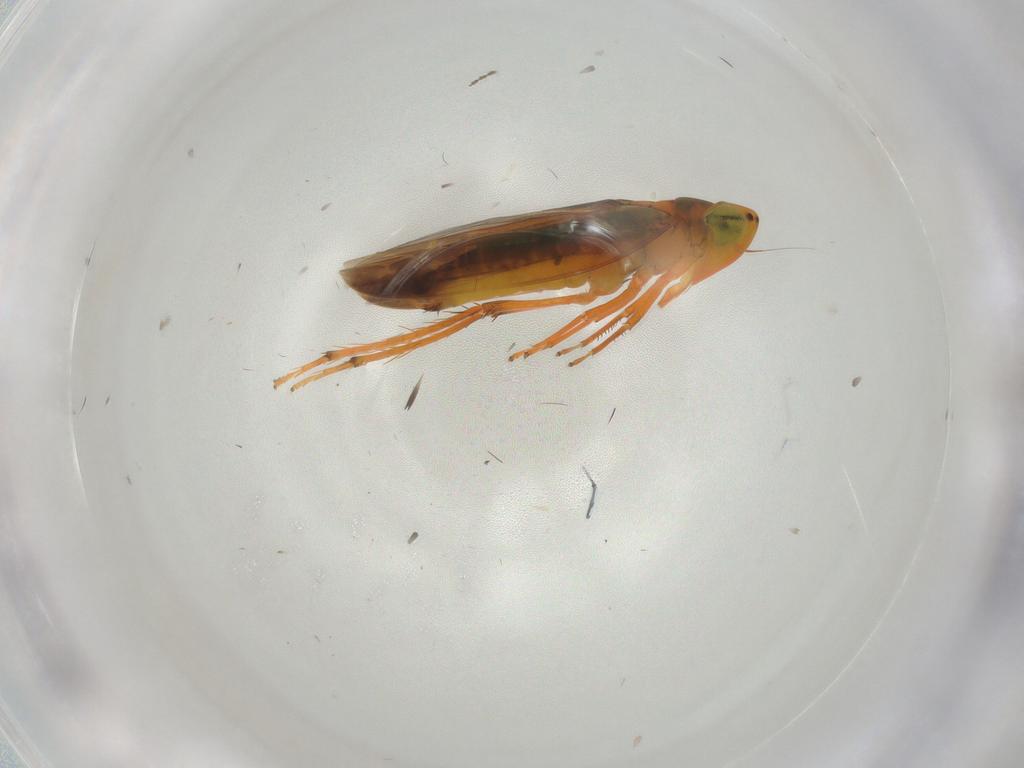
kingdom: Animalia
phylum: Arthropoda
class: Insecta
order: Hemiptera
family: Cicadellidae
